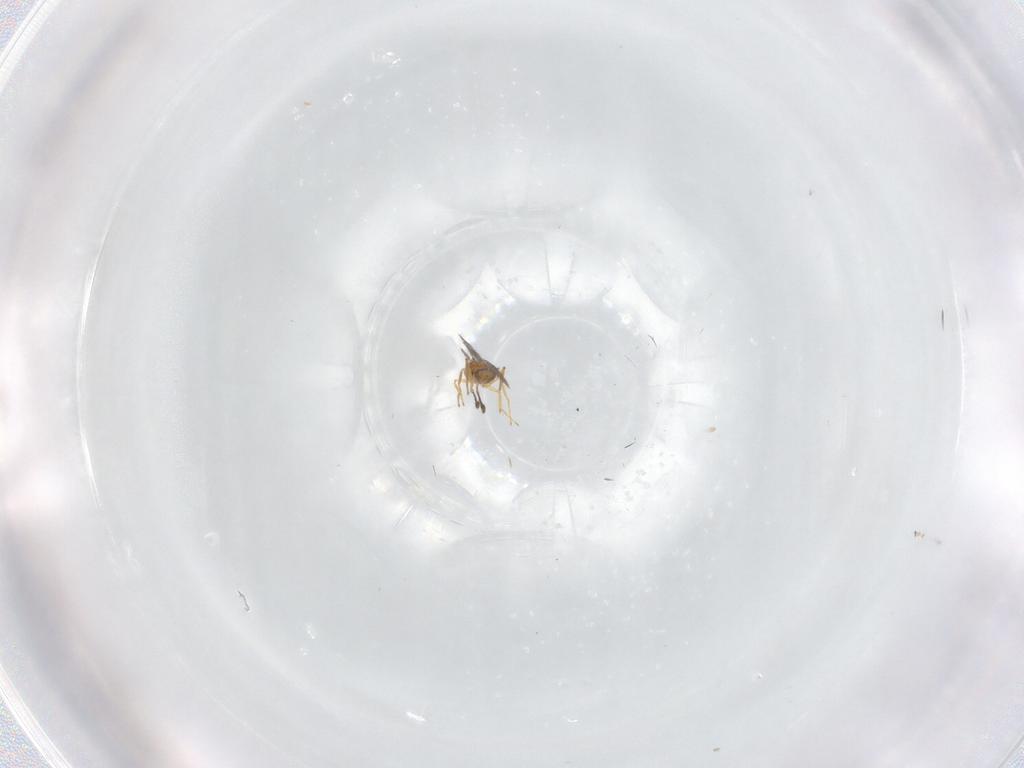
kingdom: Animalia
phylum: Arthropoda
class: Insecta
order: Hymenoptera
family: Mymaridae
